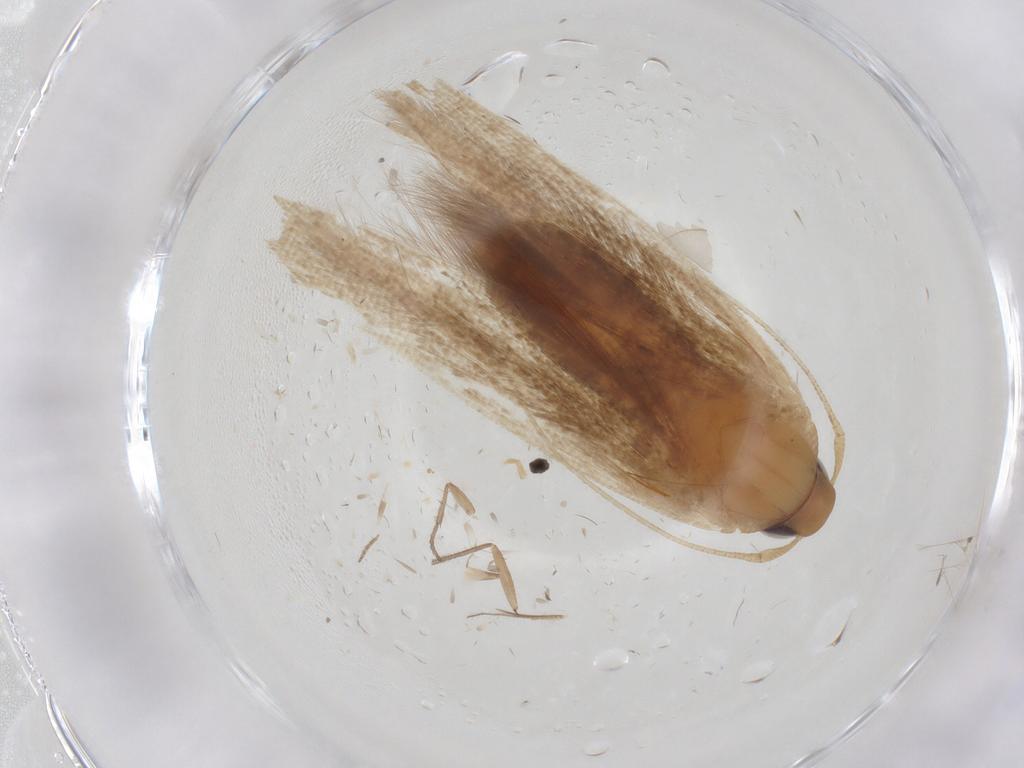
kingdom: Animalia
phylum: Arthropoda
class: Insecta
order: Lepidoptera
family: Cosmopterigidae
